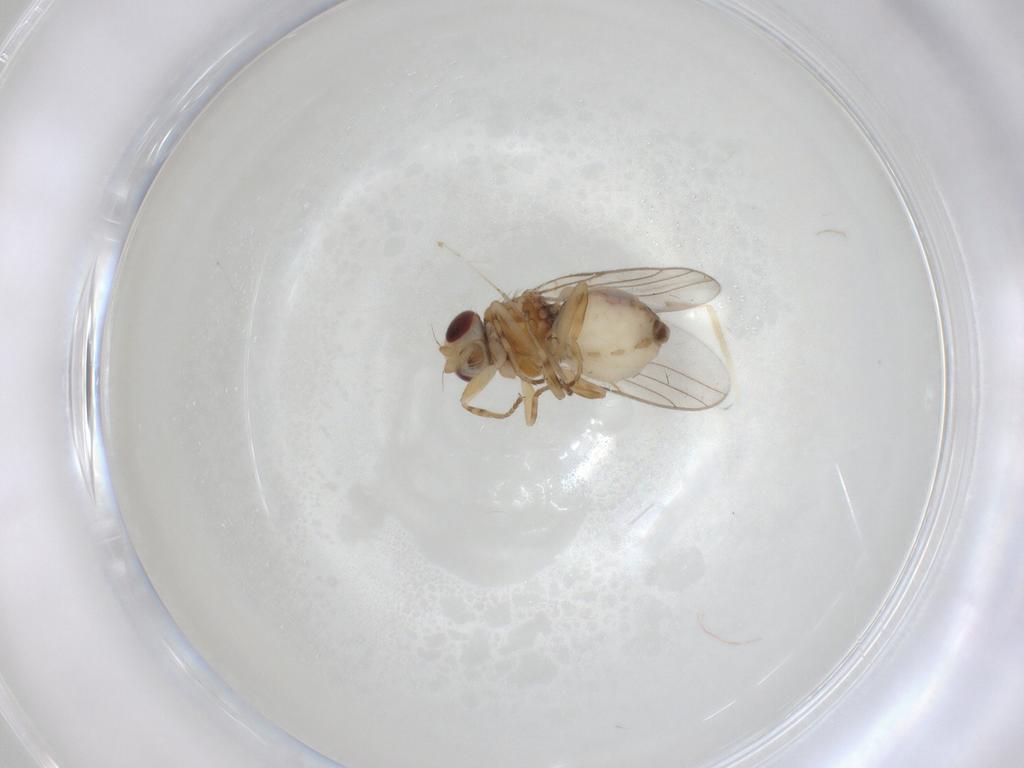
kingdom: Animalia
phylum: Arthropoda
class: Insecta
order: Diptera
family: Chloropidae
